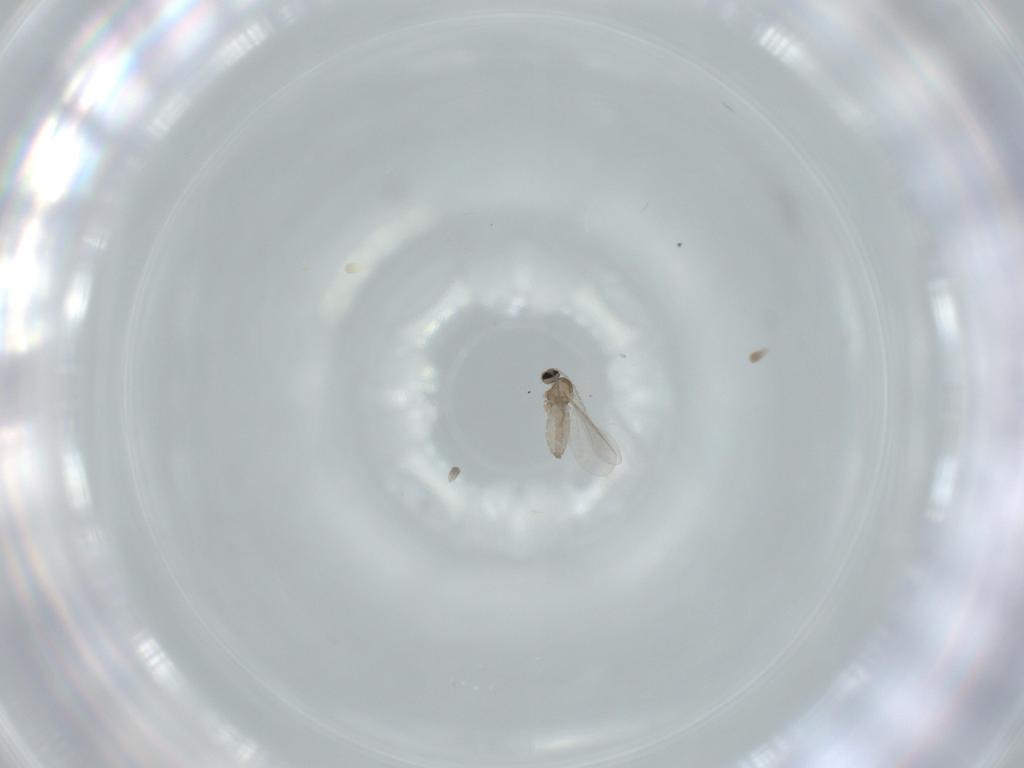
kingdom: Animalia
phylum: Arthropoda
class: Insecta
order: Diptera
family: Cecidomyiidae
